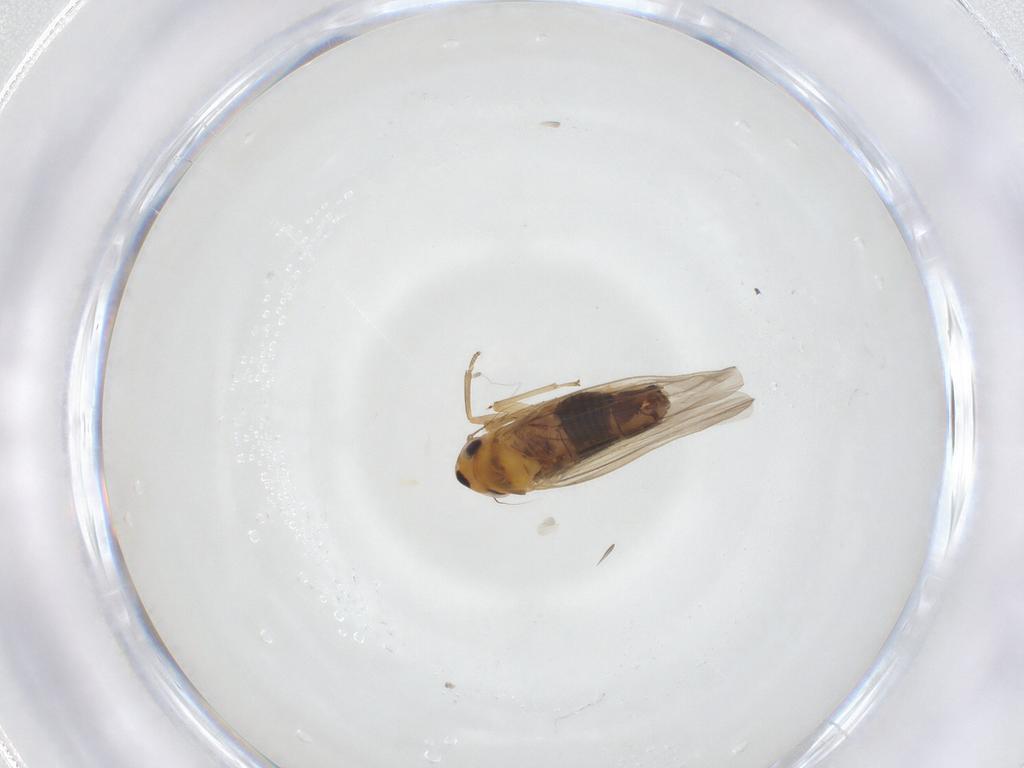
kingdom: Animalia
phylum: Arthropoda
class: Insecta
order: Hemiptera
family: Cicadellidae
